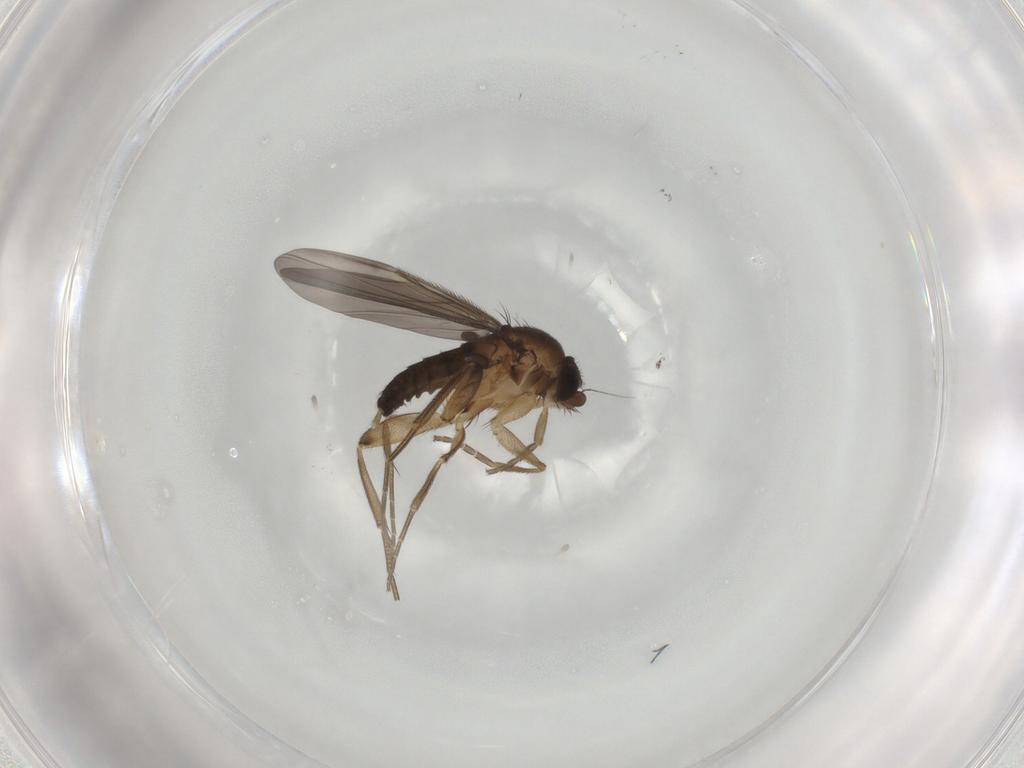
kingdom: Animalia
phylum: Arthropoda
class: Insecta
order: Diptera
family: Phoridae
